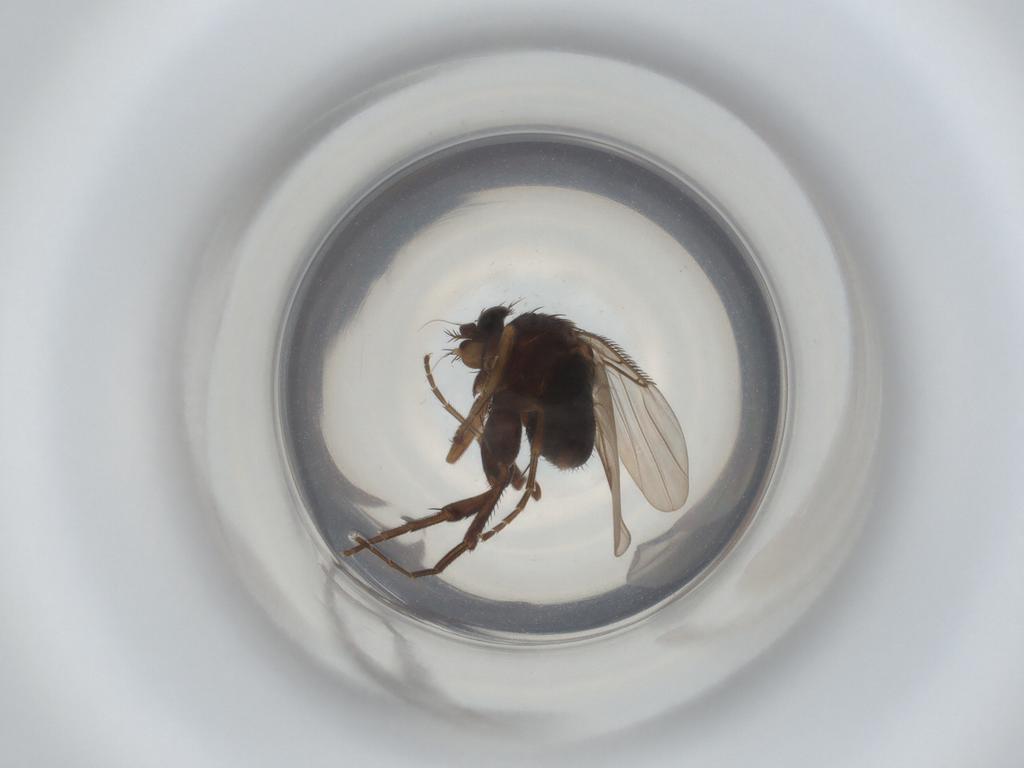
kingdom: Animalia
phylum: Arthropoda
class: Insecta
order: Diptera
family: Phoridae
